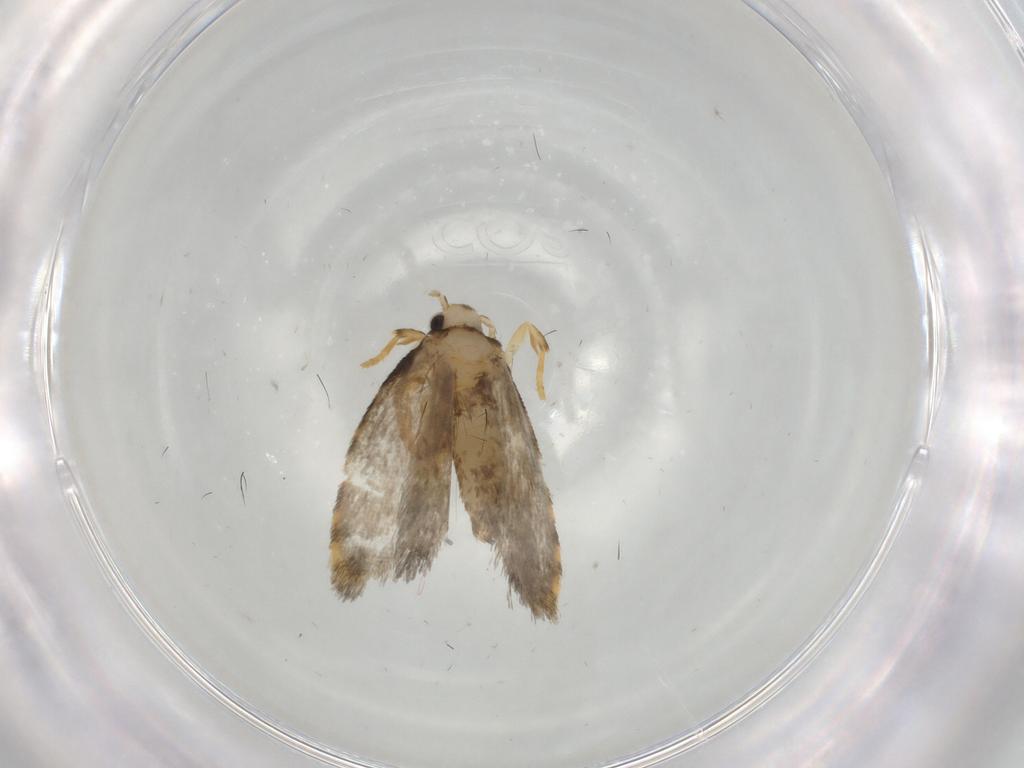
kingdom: Animalia
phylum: Arthropoda
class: Insecta
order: Lepidoptera
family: Psychidae
